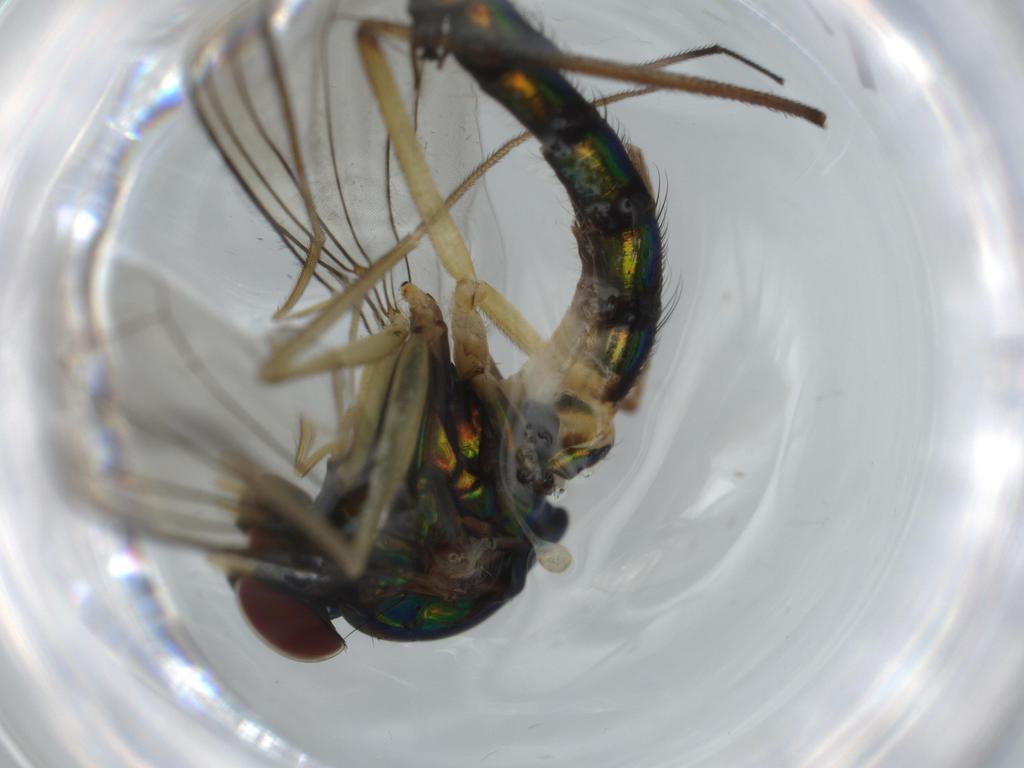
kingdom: Animalia
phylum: Arthropoda
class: Insecta
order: Diptera
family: Dolichopodidae
